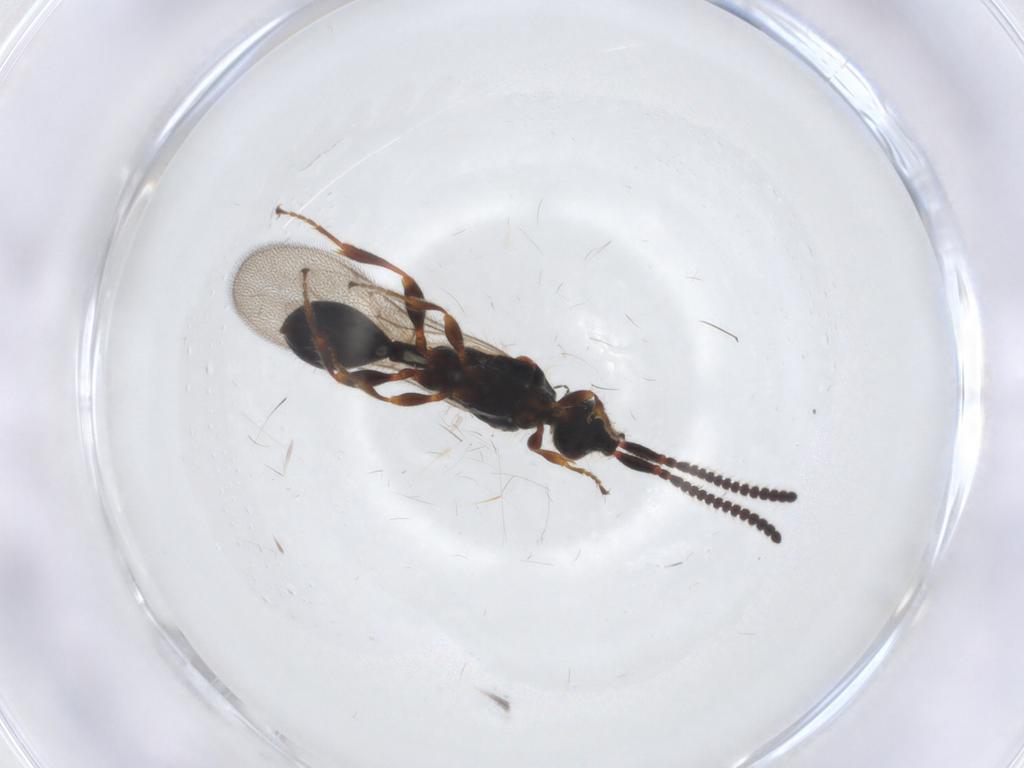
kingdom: Animalia
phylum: Arthropoda
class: Insecta
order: Hymenoptera
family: Diapriidae
